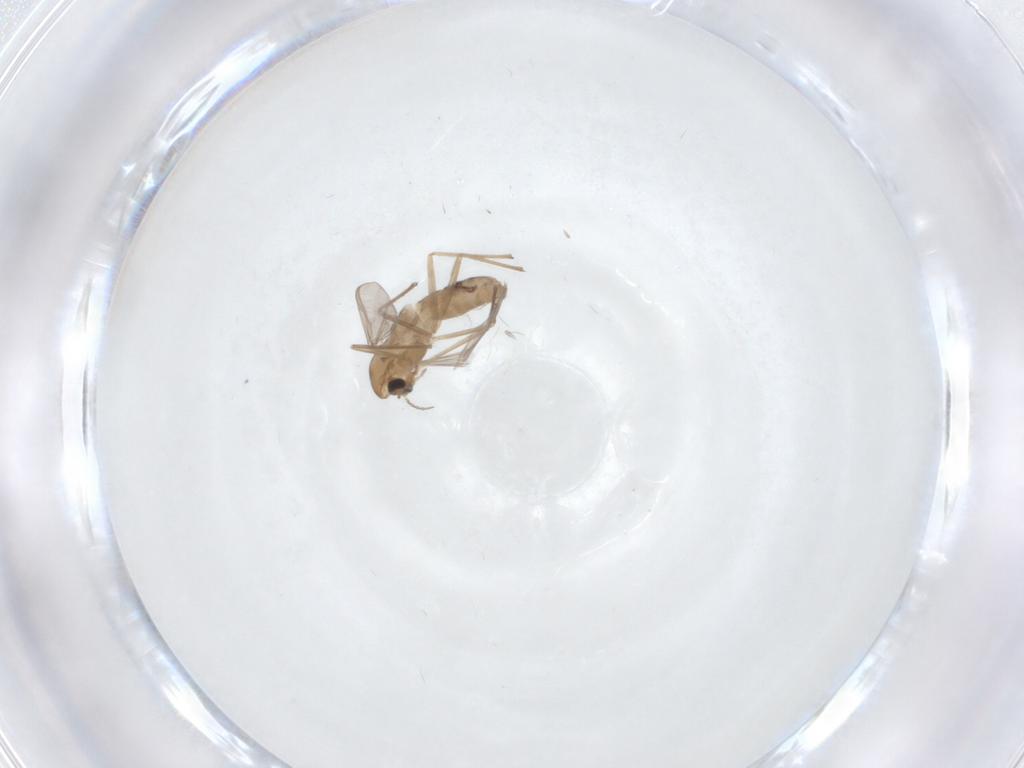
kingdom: Animalia
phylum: Arthropoda
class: Insecta
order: Diptera
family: Chironomidae
